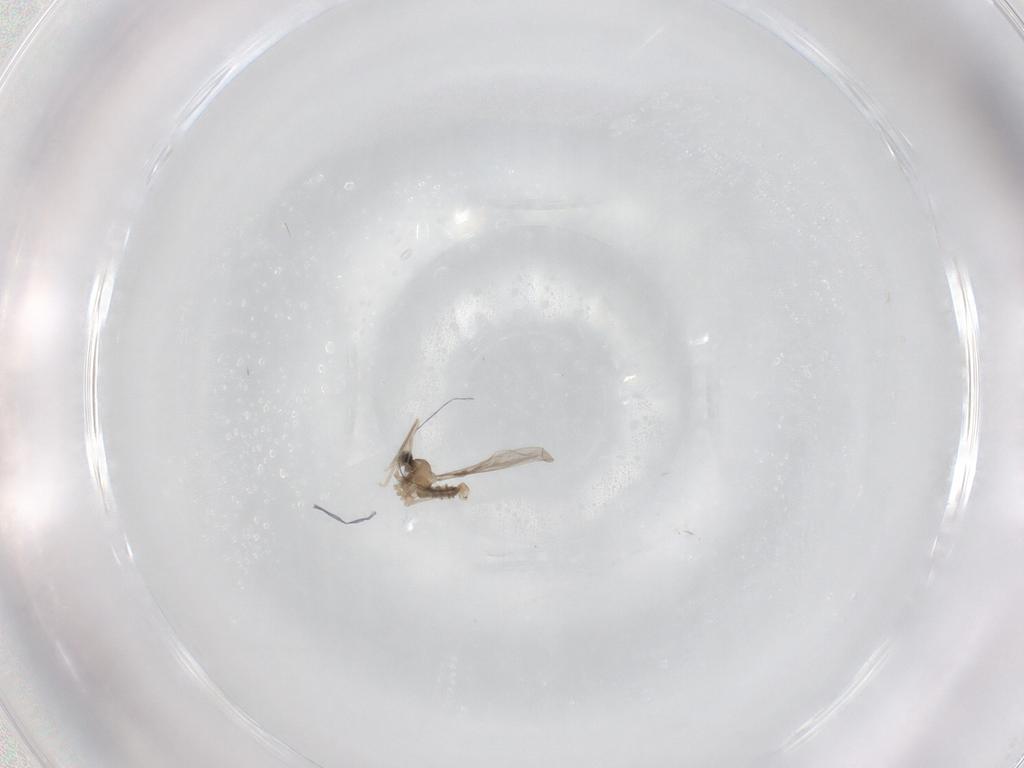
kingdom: Animalia
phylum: Arthropoda
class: Insecta
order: Diptera
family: Cecidomyiidae
